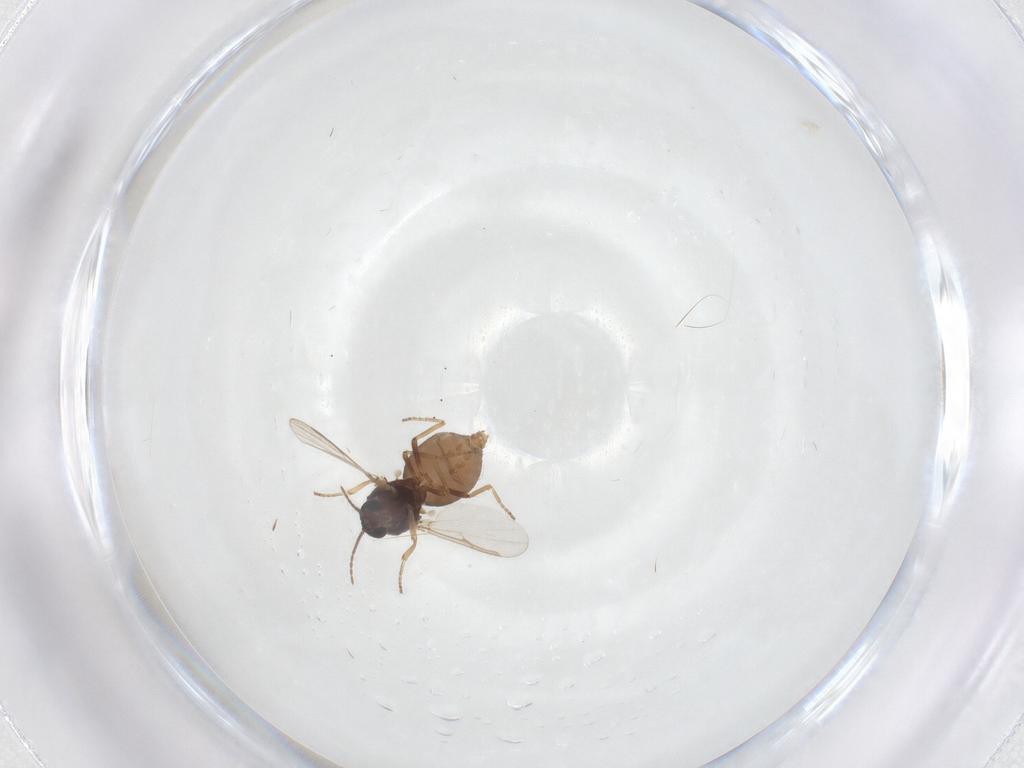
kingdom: Animalia
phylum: Arthropoda
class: Insecta
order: Diptera
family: Ceratopogonidae
